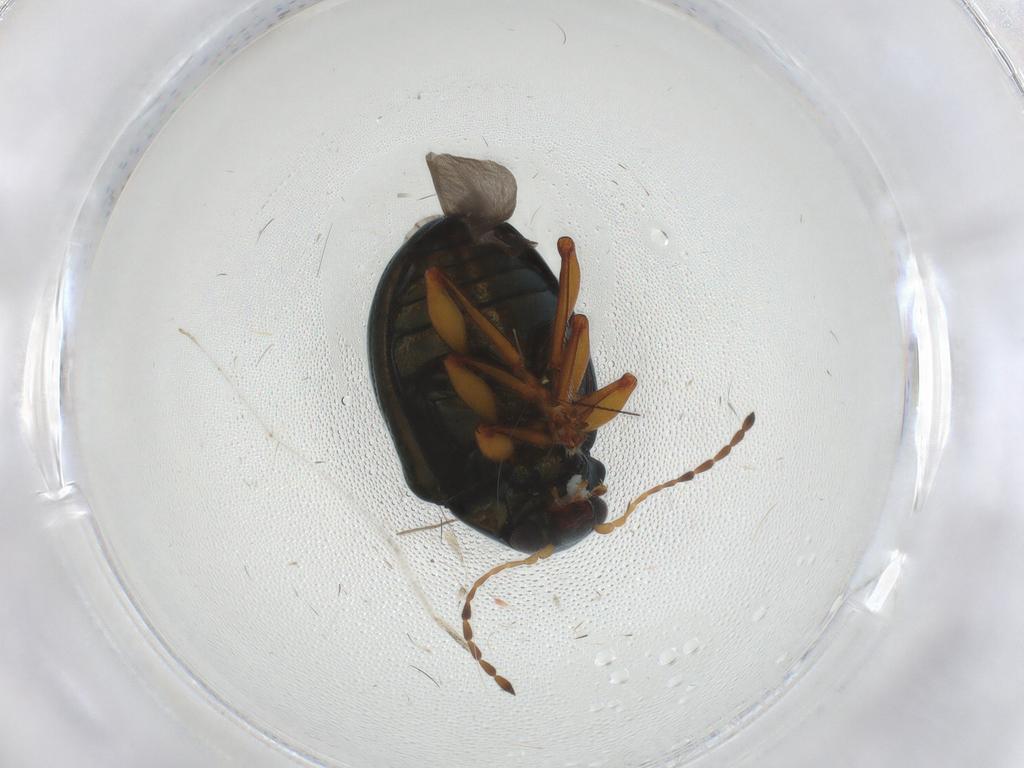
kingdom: Animalia
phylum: Arthropoda
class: Insecta
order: Coleoptera
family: Chrysomelidae
